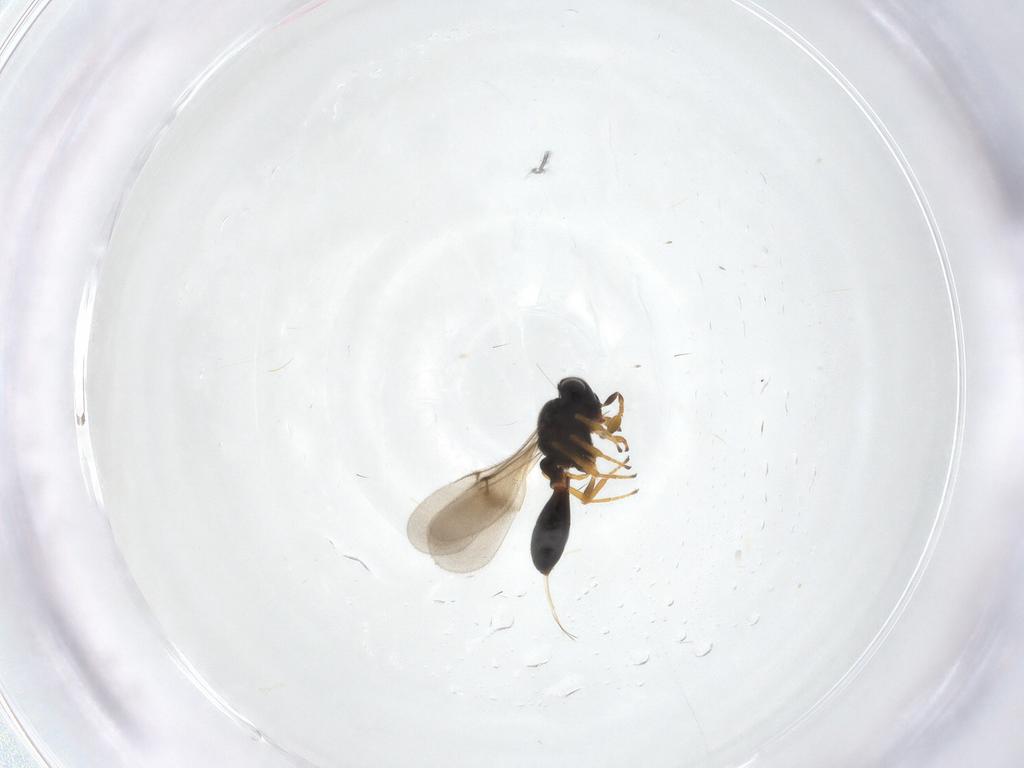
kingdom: Animalia
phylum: Arthropoda
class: Insecta
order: Hymenoptera
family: Scelionidae
